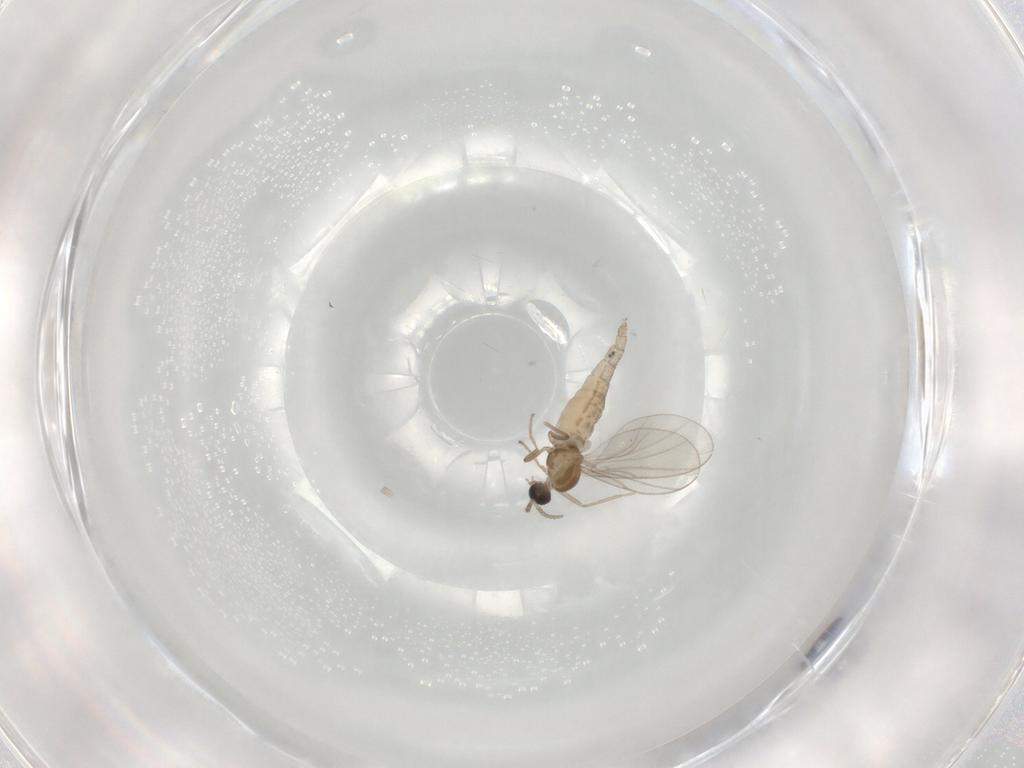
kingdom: Animalia
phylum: Arthropoda
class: Insecta
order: Diptera
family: Cecidomyiidae
